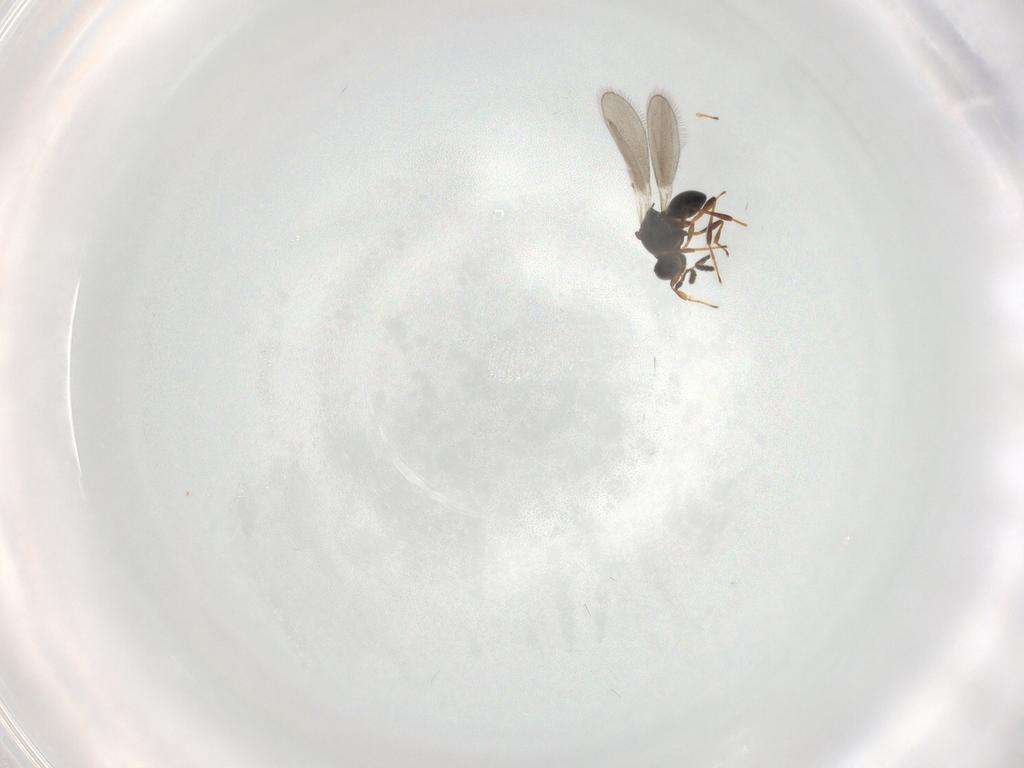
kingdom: Animalia
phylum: Arthropoda
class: Insecta
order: Hymenoptera
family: Platygastridae
